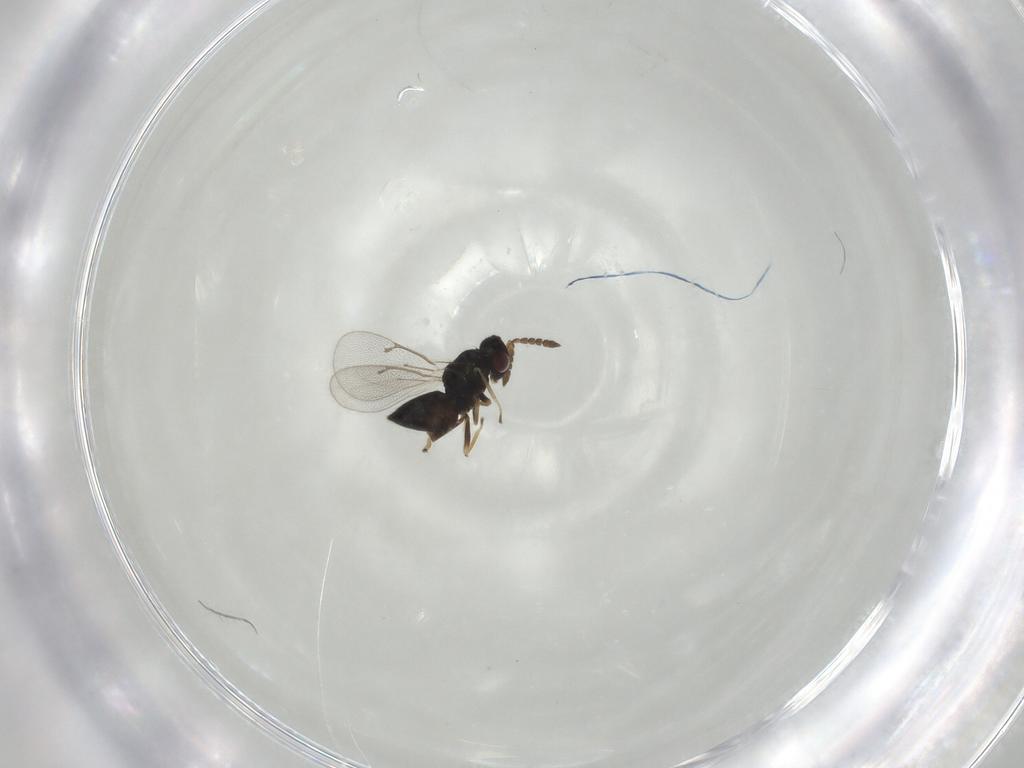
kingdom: Animalia
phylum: Arthropoda
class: Insecta
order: Hymenoptera
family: Eulophidae
